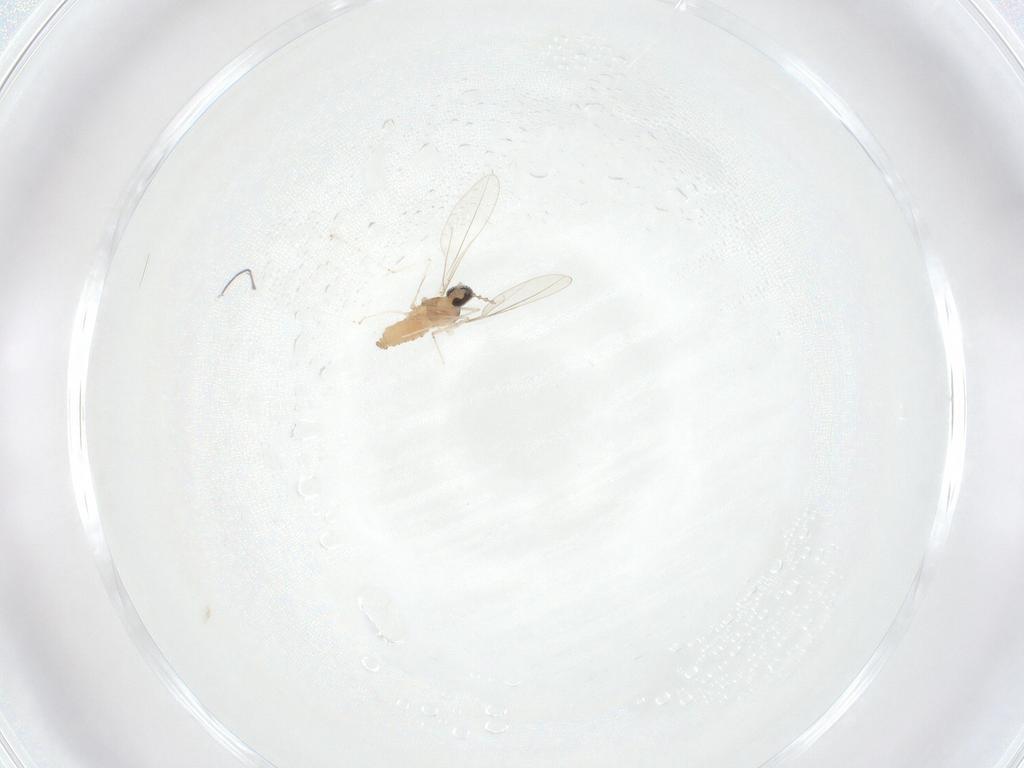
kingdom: Animalia
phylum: Arthropoda
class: Insecta
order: Diptera
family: Cecidomyiidae
